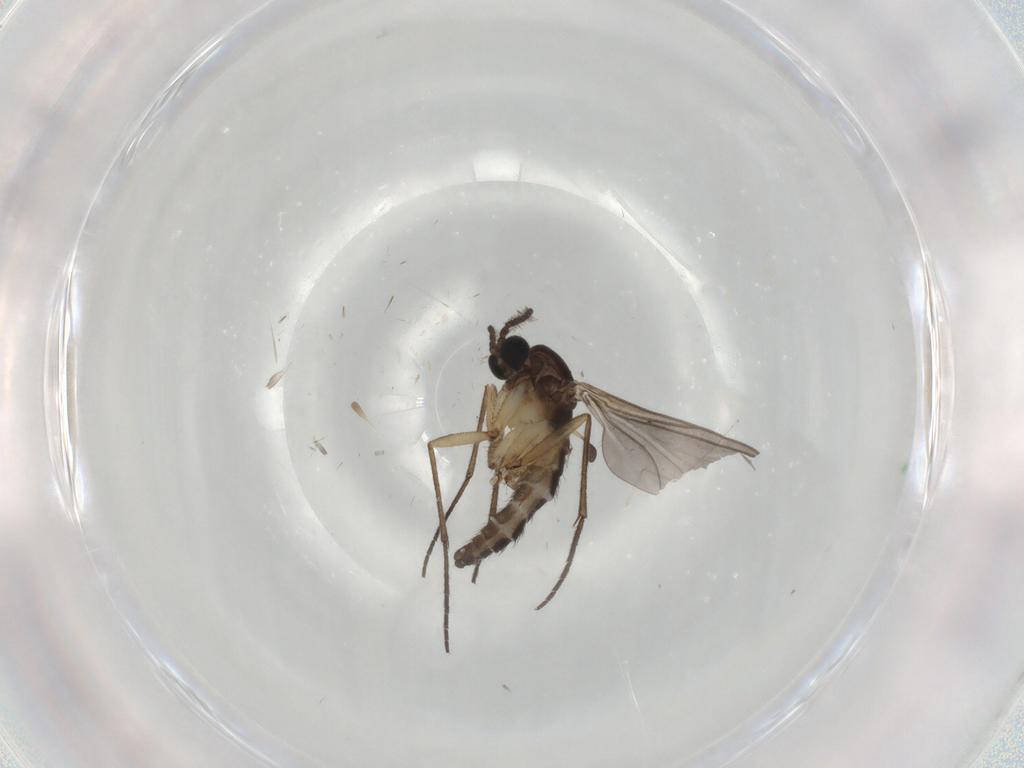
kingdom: Animalia
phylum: Arthropoda
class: Insecta
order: Diptera
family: Sciaridae
